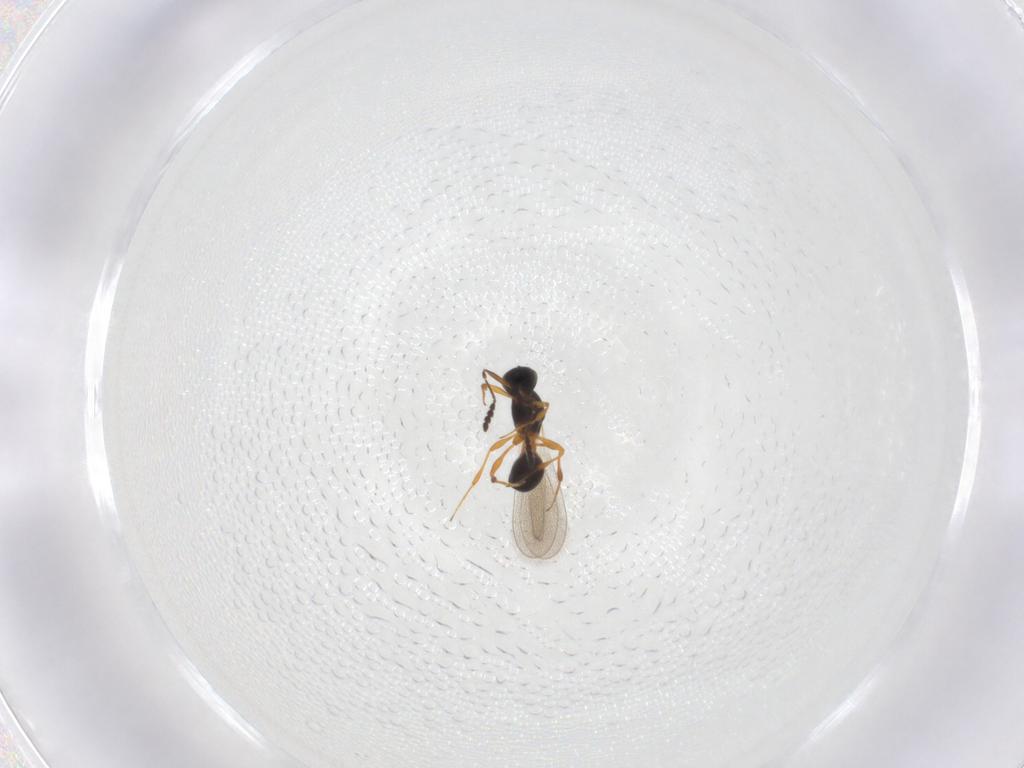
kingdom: Animalia
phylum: Arthropoda
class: Insecta
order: Hymenoptera
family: Platygastridae
